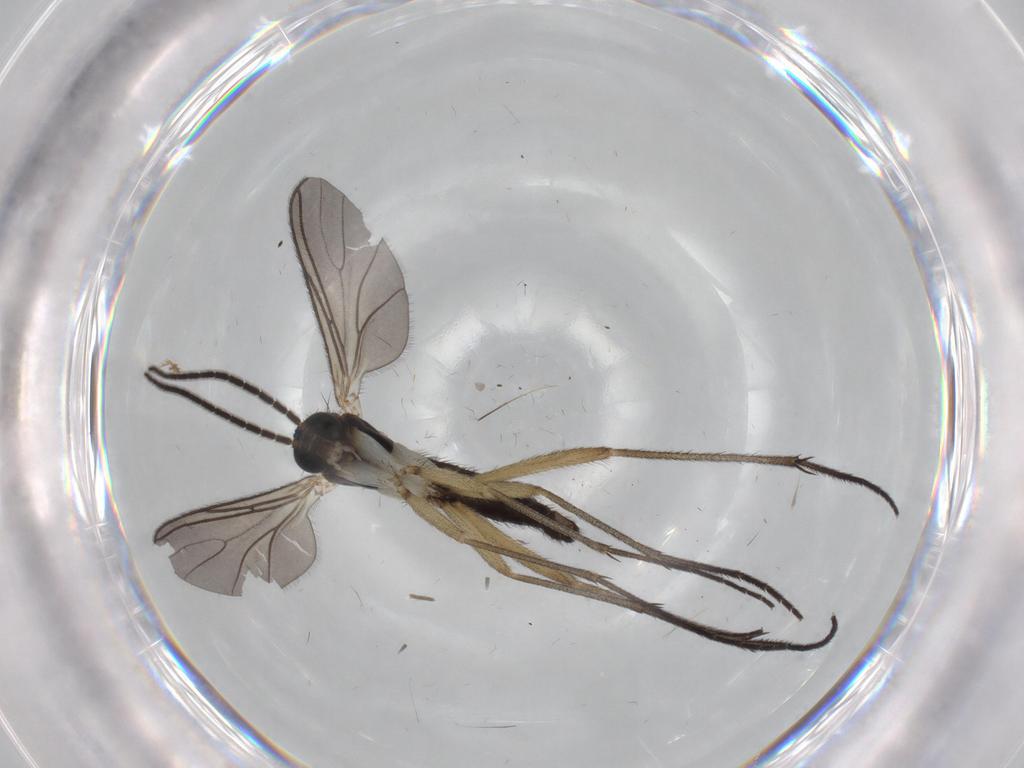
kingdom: Animalia
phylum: Arthropoda
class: Insecta
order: Diptera
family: Sciaridae
